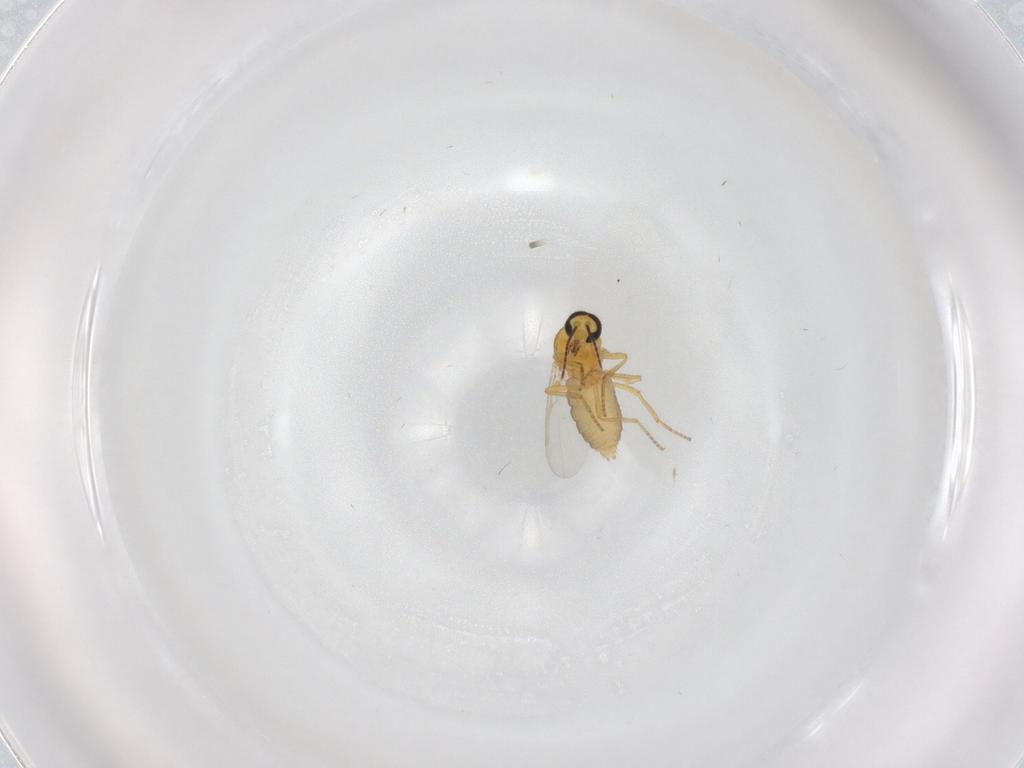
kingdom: Animalia
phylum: Arthropoda
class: Insecta
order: Diptera
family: Ceratopogonidae
